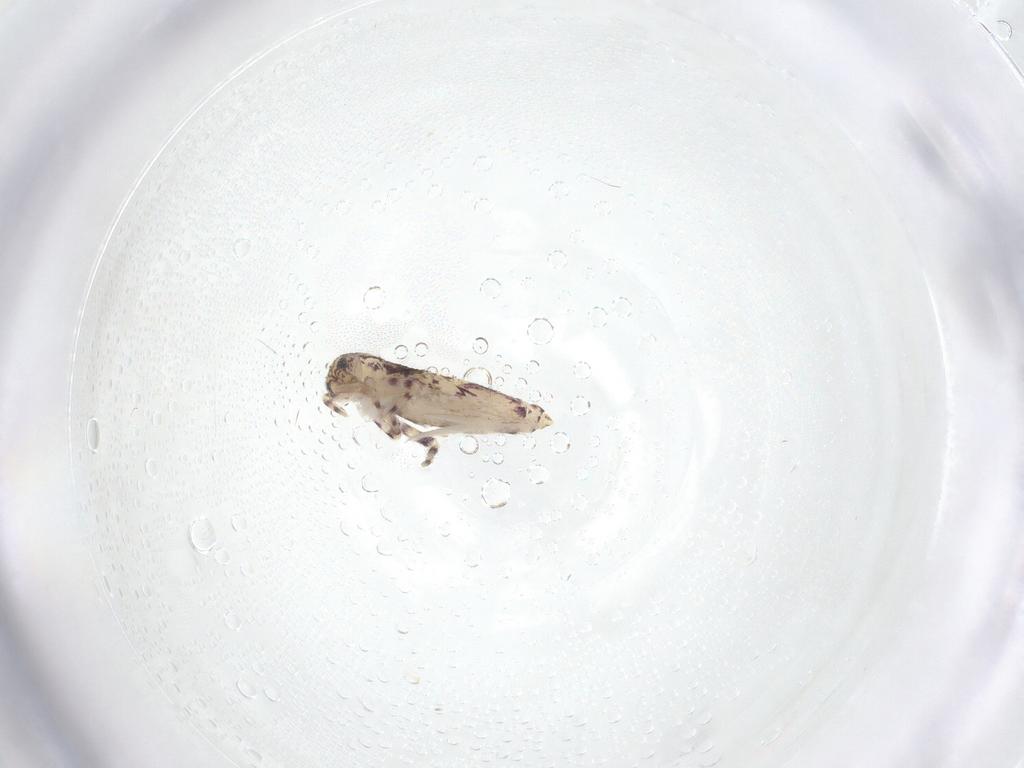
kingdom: Animalia
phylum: Arthropoda
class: Collembola
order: Entomobryomorpha
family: Entomobryidae
